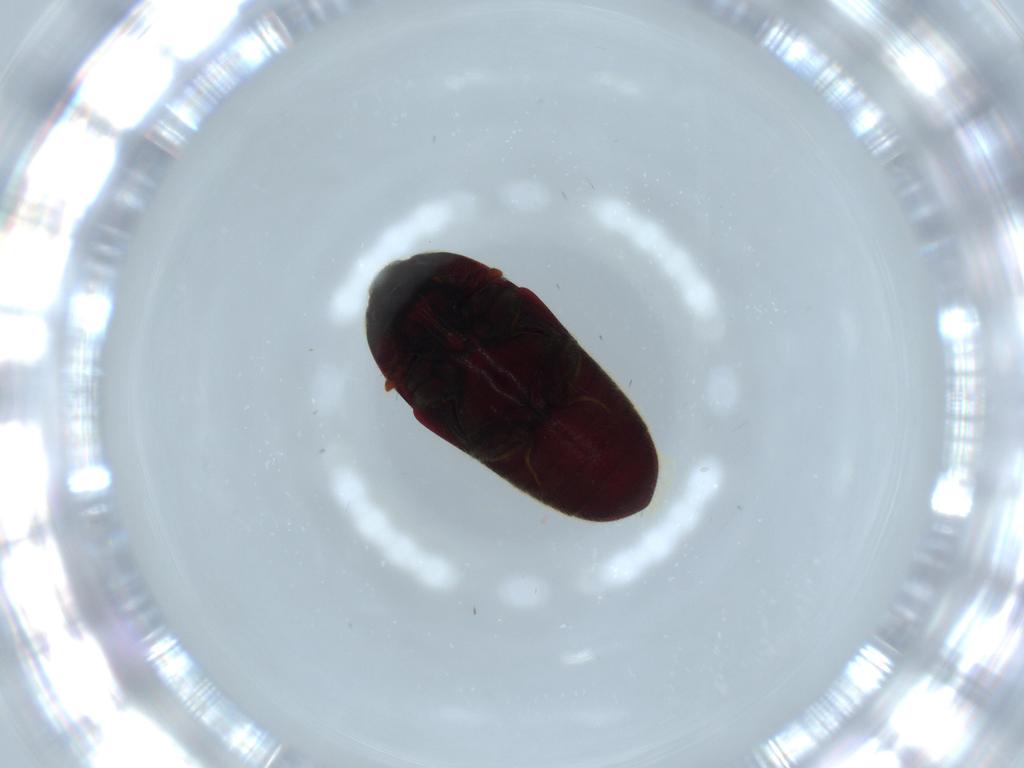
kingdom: Animalia
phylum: Arthropoda
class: Insecta
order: Coleoptera
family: Throscidae
